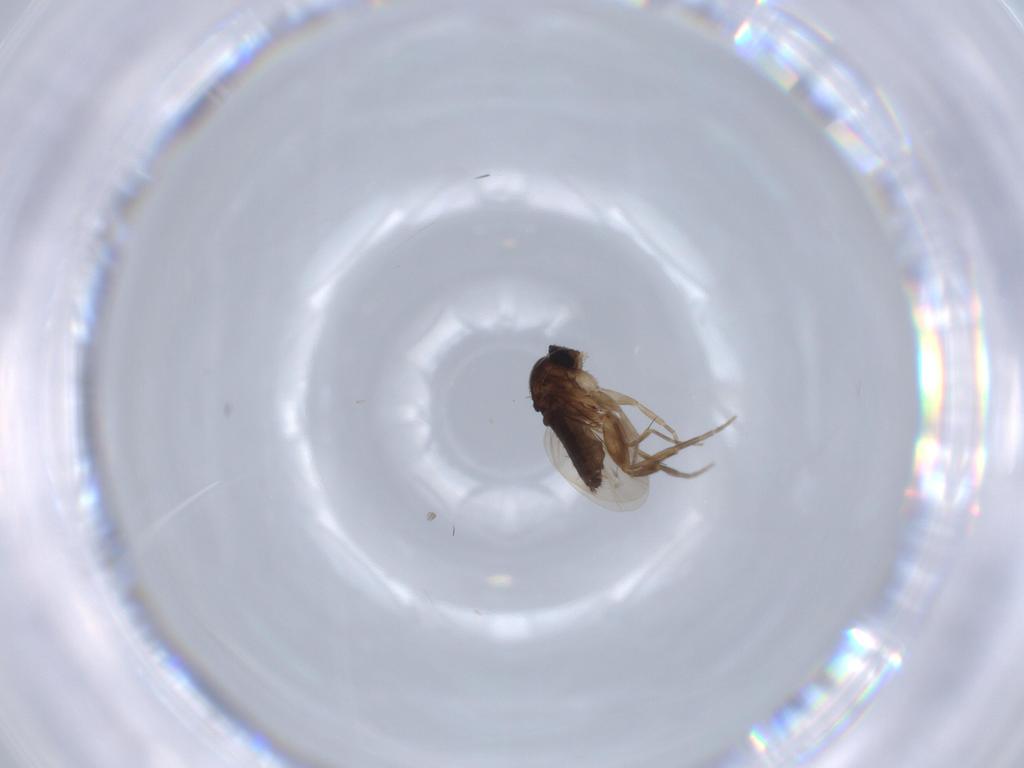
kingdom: Animalia
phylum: Arthropoda
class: Insecta
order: Diptera
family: Phoridae
